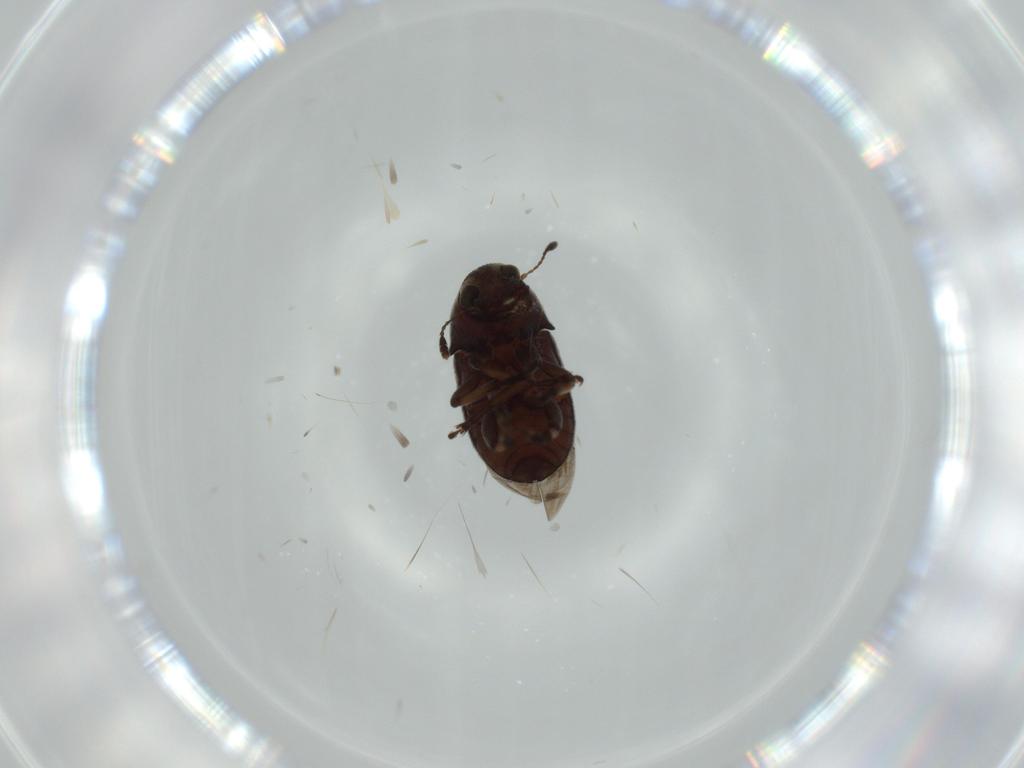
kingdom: Animalia
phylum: Arthropoda
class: Insecta
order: Coleoptera
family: Anthribidae
